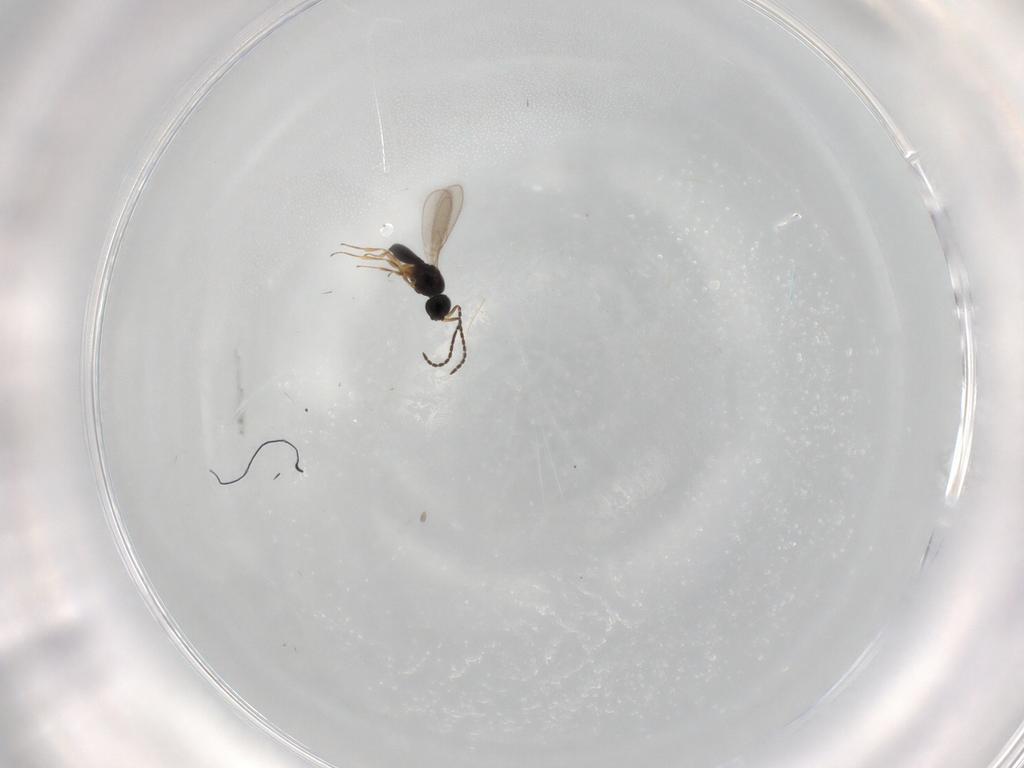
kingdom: Animalia
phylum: Arthropoda
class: Insecta
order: Hymenoptera
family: Scelionidae
